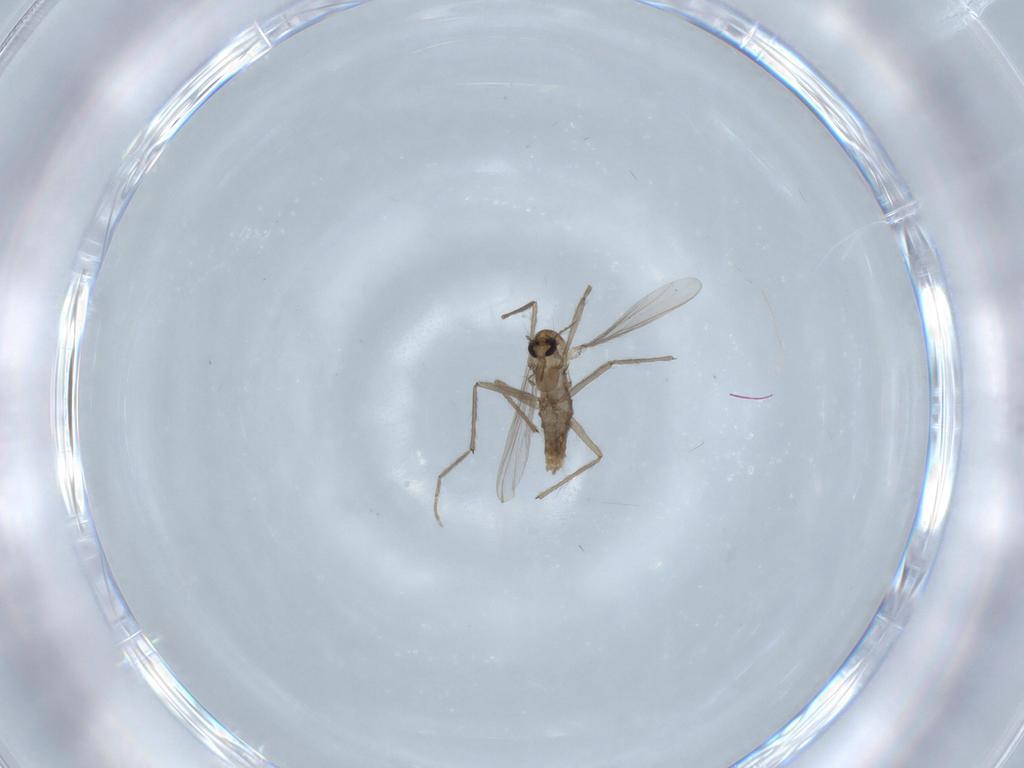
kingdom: Animalia
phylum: Arthropoda
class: Insecta
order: Diptera
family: Chironomidae
